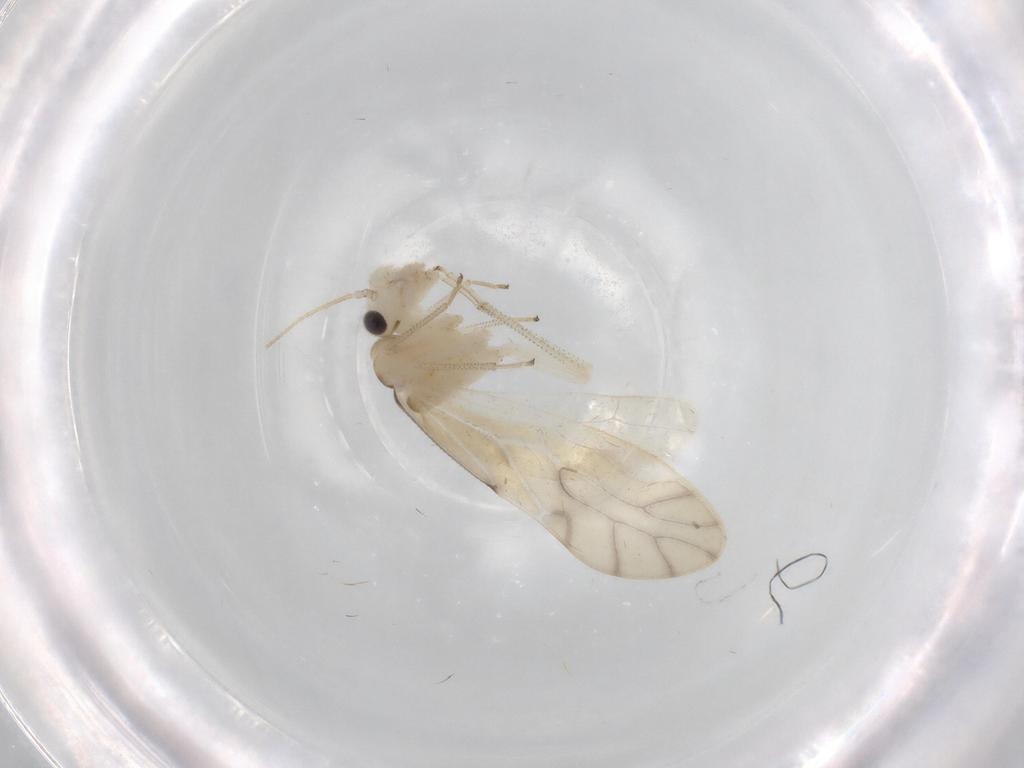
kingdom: Animalia
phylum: Arthropoda
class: Insecta
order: Psocodea
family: Caeciliusidae
